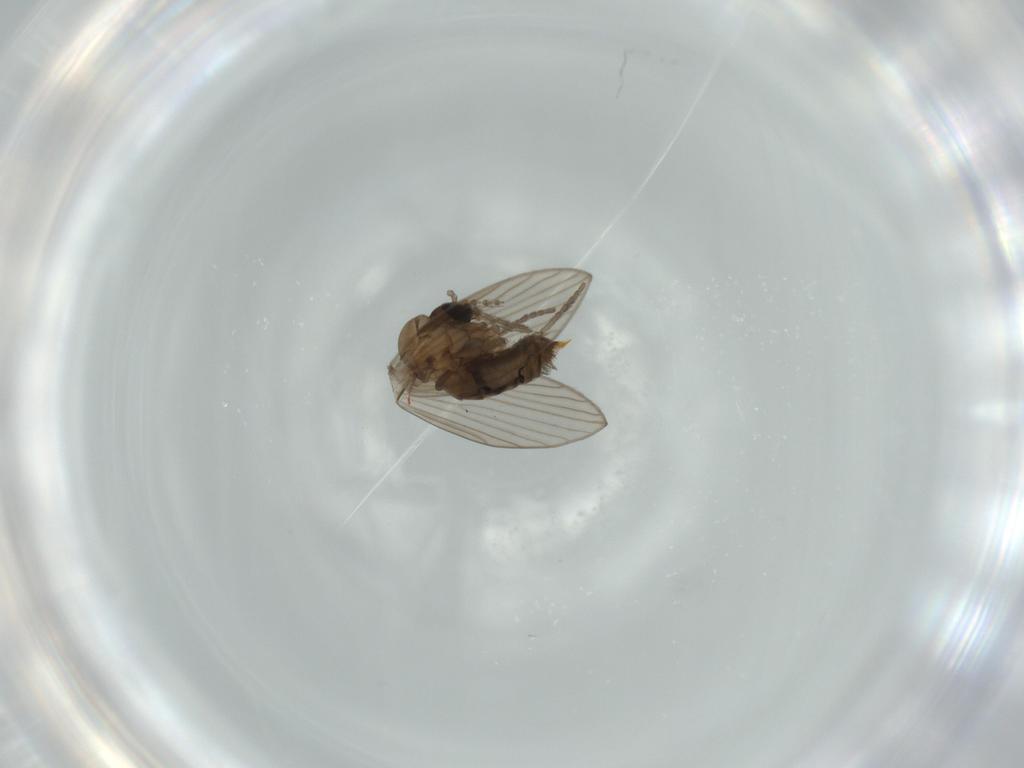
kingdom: Animalia
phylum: Arthropoda
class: Insecta
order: Diptera
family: Psychodidae
